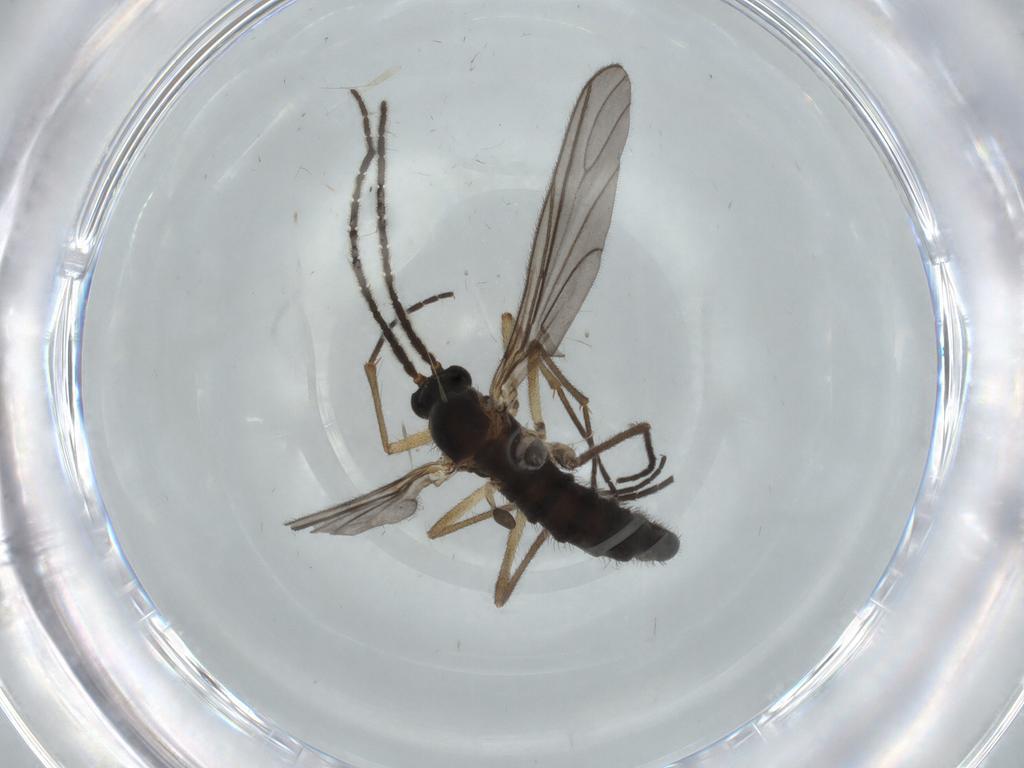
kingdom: Animalia
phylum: Arthropoda
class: Insecta
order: Diptera
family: Sciaridae
